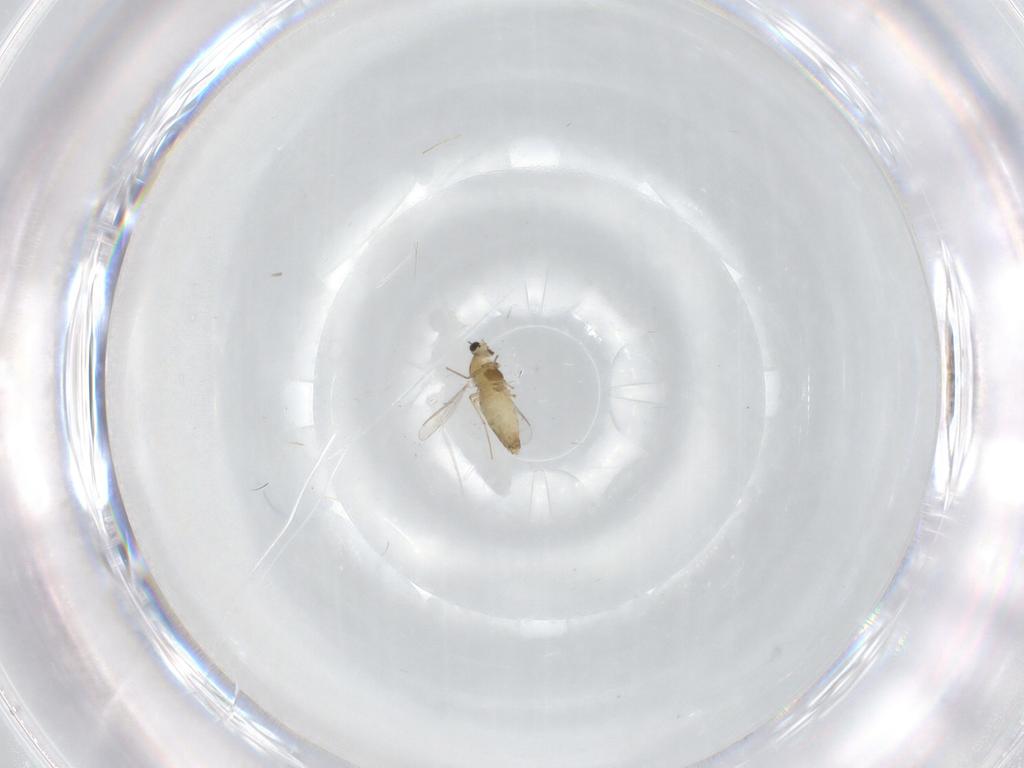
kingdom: Animalia
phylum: Arthropoda
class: Insecta
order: Diptera
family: Chironomidae
